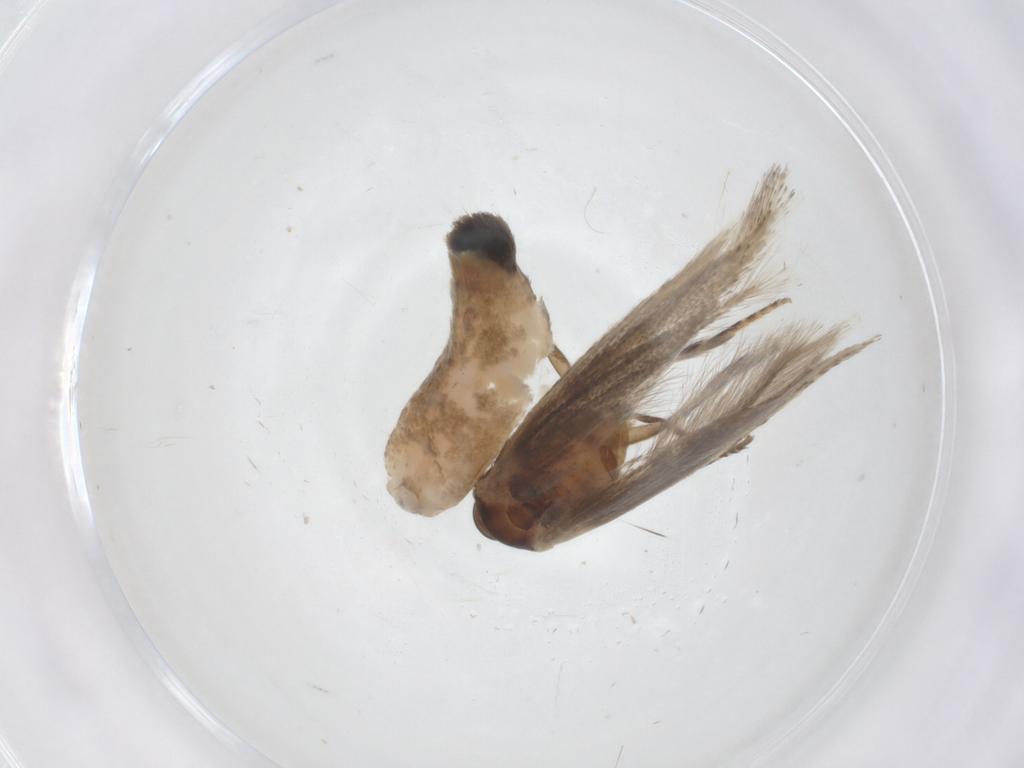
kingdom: Animalia
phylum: Arthropoda
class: Insecta
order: Lepidoptera
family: Elachistidae
